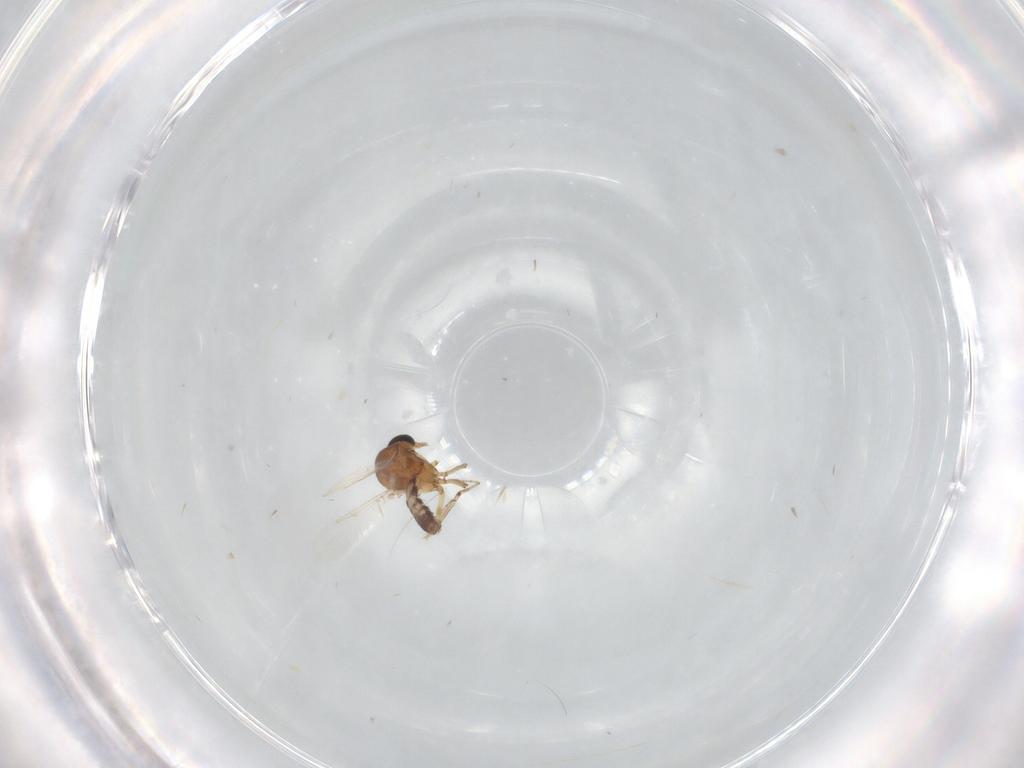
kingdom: Animalia
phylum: Arthropoda
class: Insecta
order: Diptera
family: Ceratopogonidae
